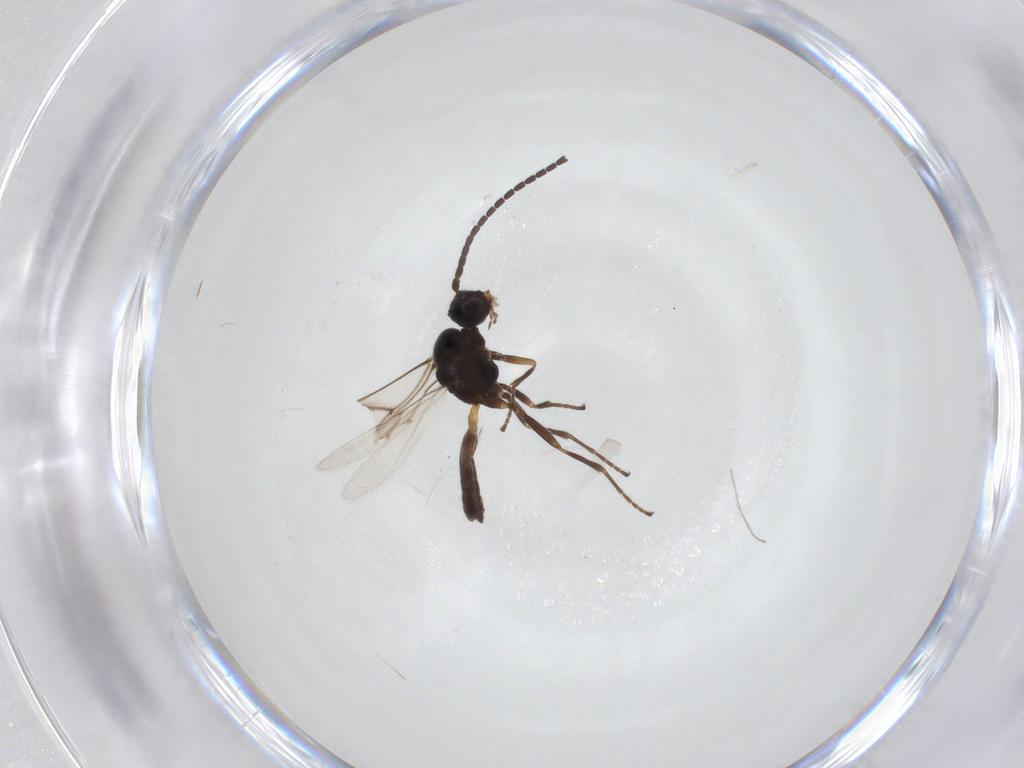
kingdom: Animalia
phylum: Arthropoda
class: Insecta
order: Hymenoptera
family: Braconidae
